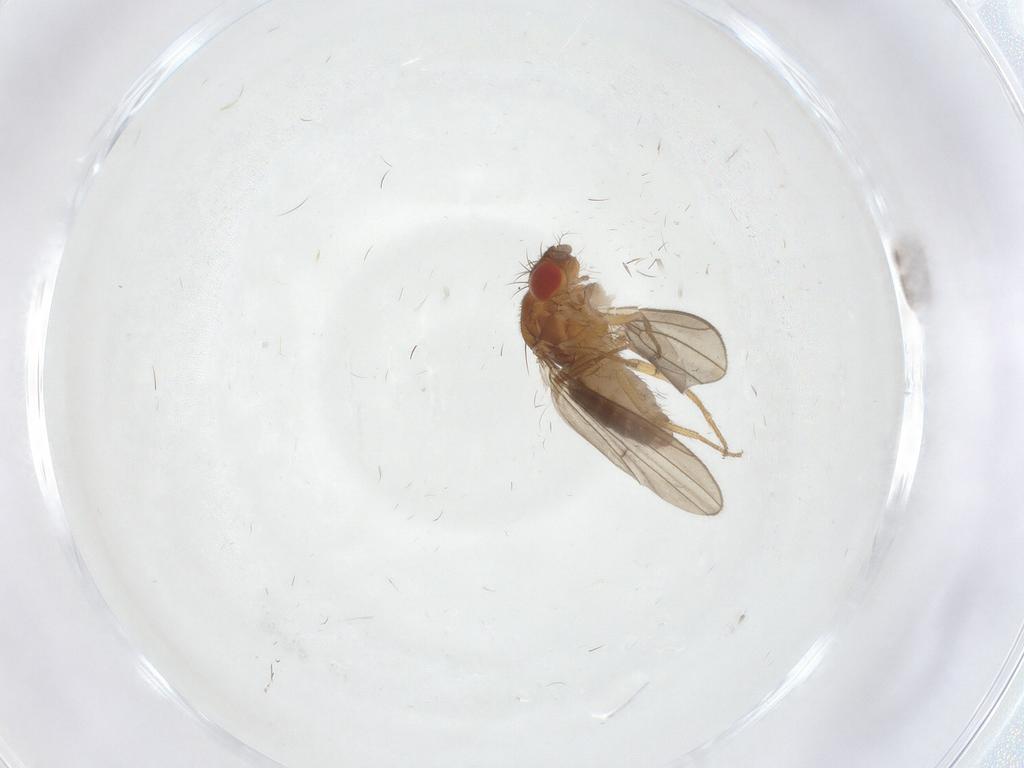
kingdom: Animalia
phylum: Arthropoda
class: Insecta
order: Diptera
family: Drosophilidae
